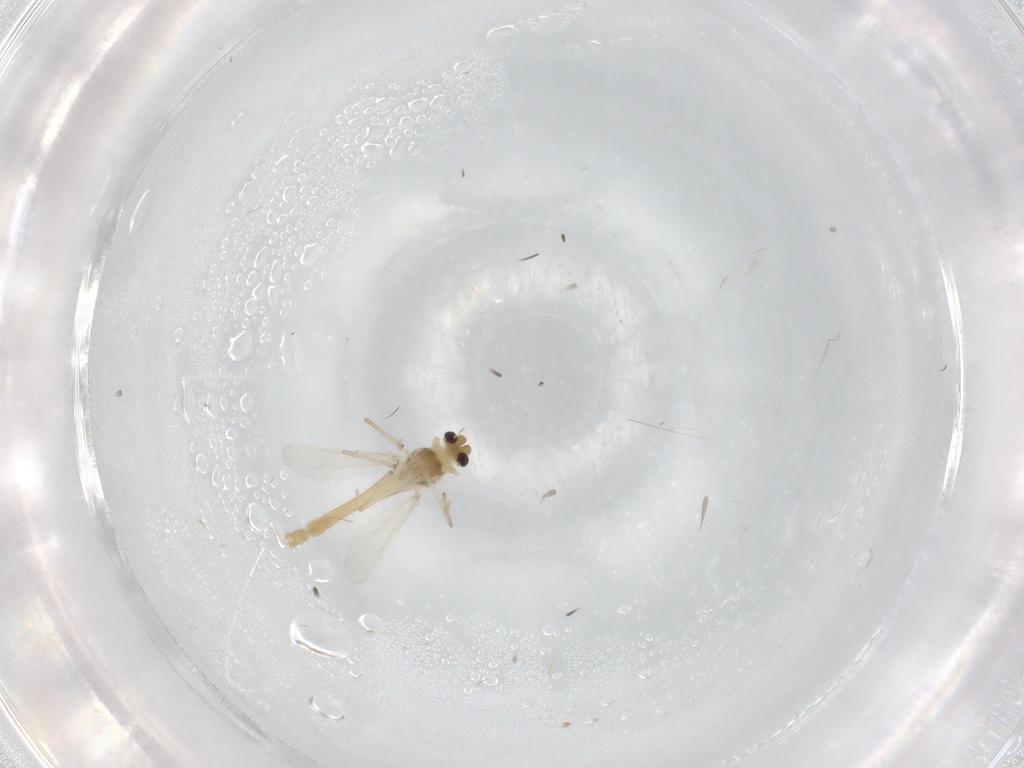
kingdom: Animalia
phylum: Arthropoda
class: Insecta
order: Diptera
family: Dolichopodidae
